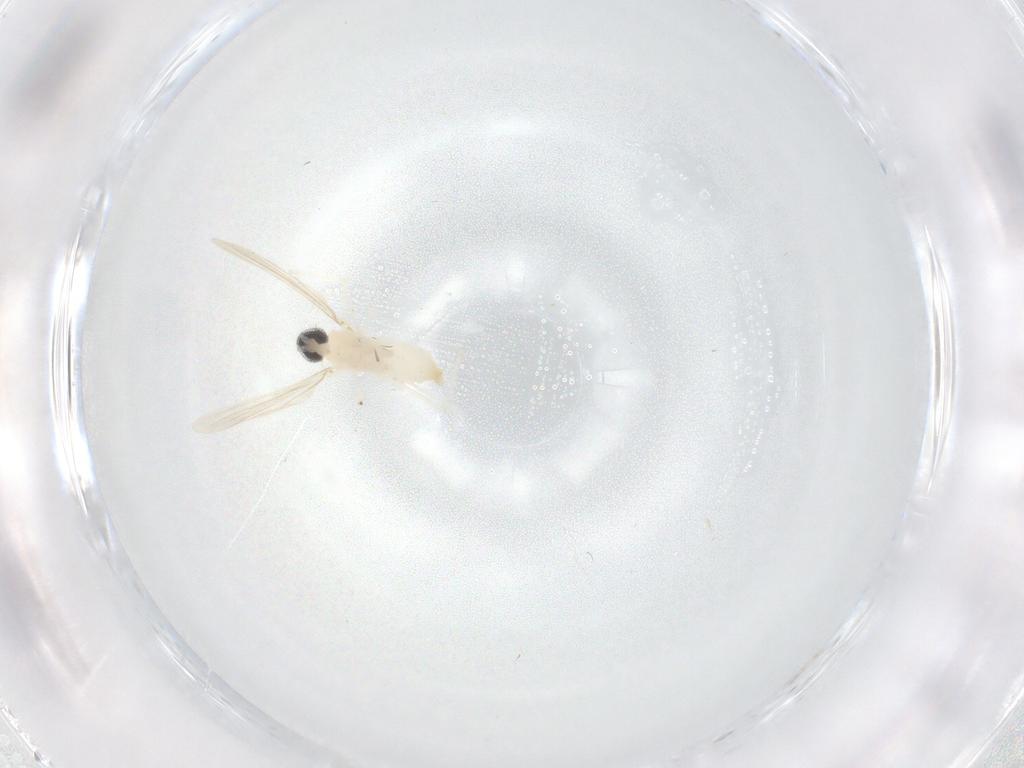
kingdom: Animalia
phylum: Arthropoda
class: Insecta
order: Diptera
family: Cecidomyiidae
